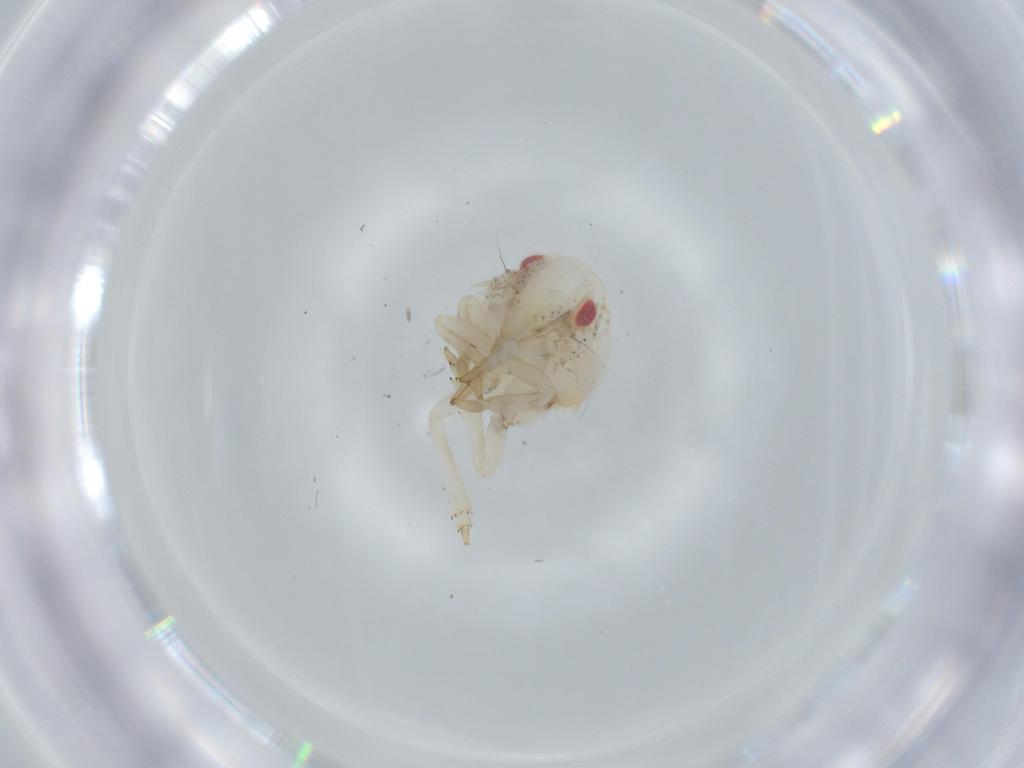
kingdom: Animalia
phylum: Arthropoda
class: Insecta
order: Hemiptera
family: Acanaloniidae
